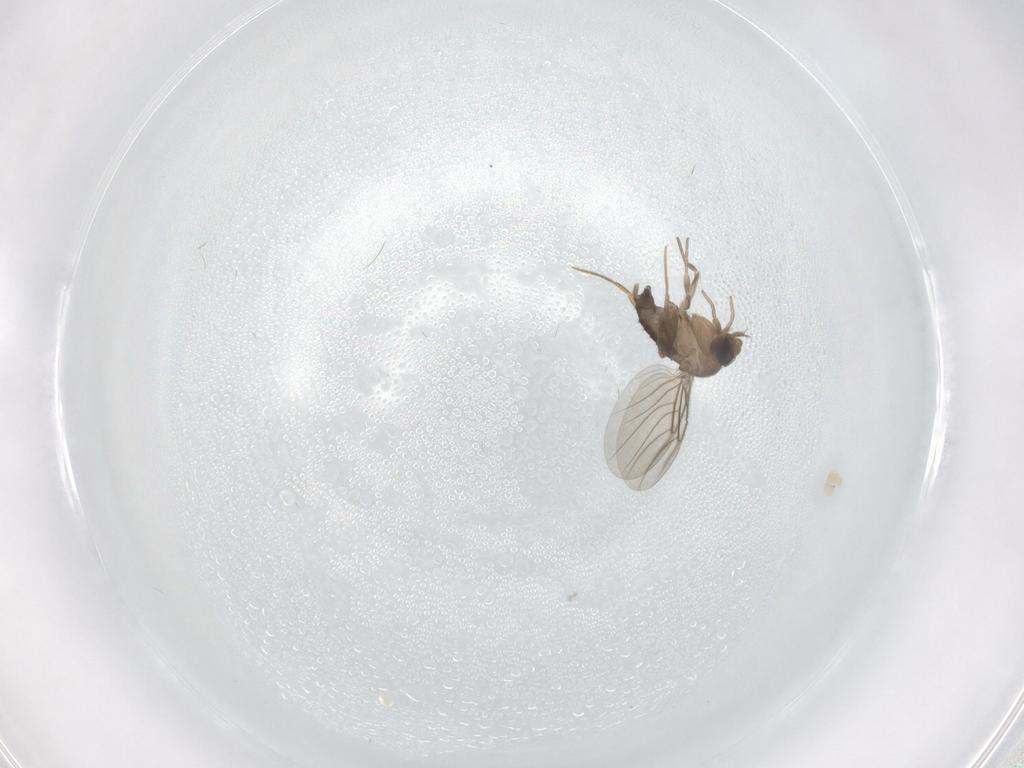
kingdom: Animalia
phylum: Arthropoda
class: Insecta
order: Diptera
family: Phoridae
